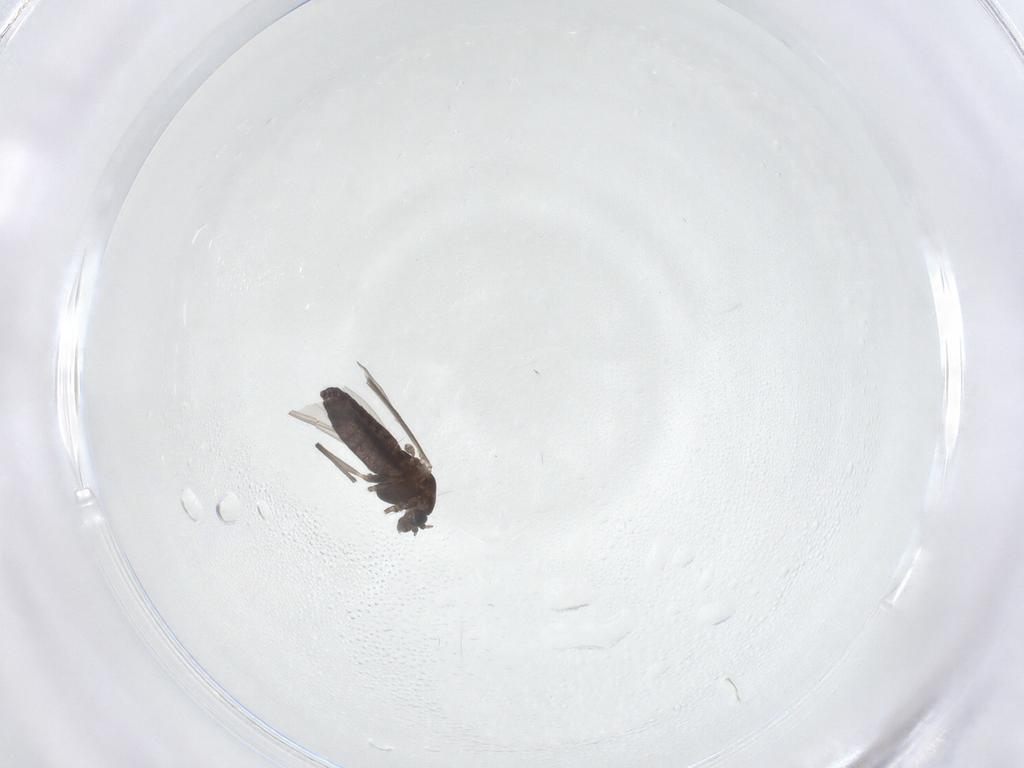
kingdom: Animalia
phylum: Arthropoda
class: Insecta
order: Diptera
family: Chironomidae
